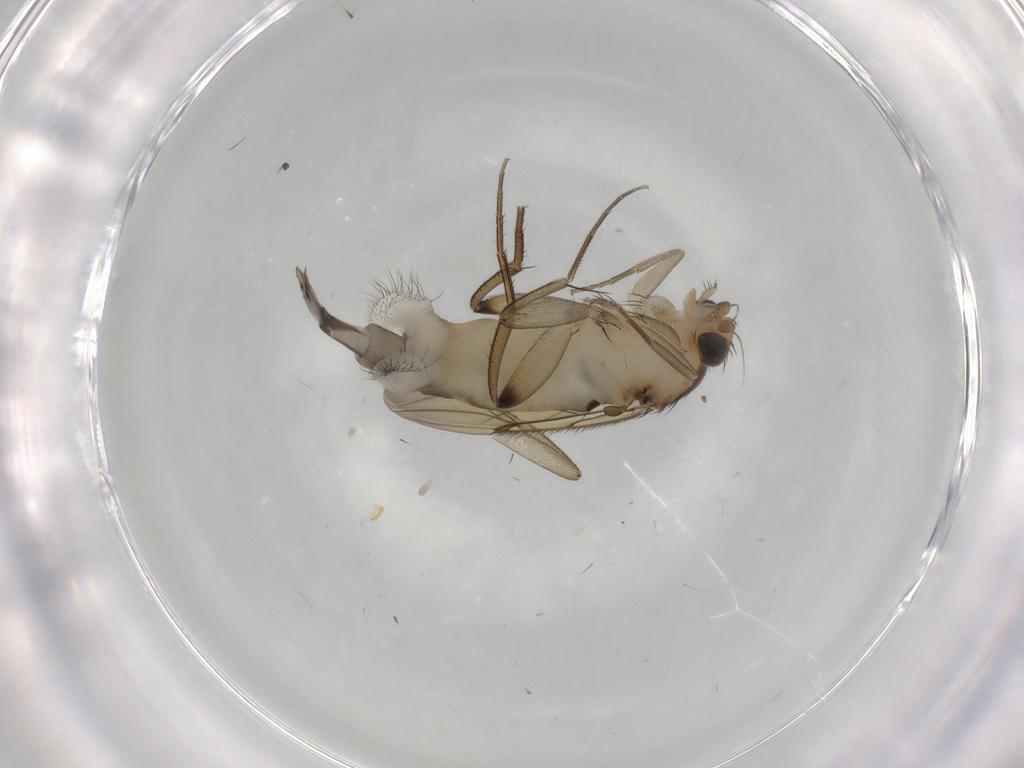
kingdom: Animalia
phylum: Arthropoda
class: Insecta
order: Diptera
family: Phoridae
